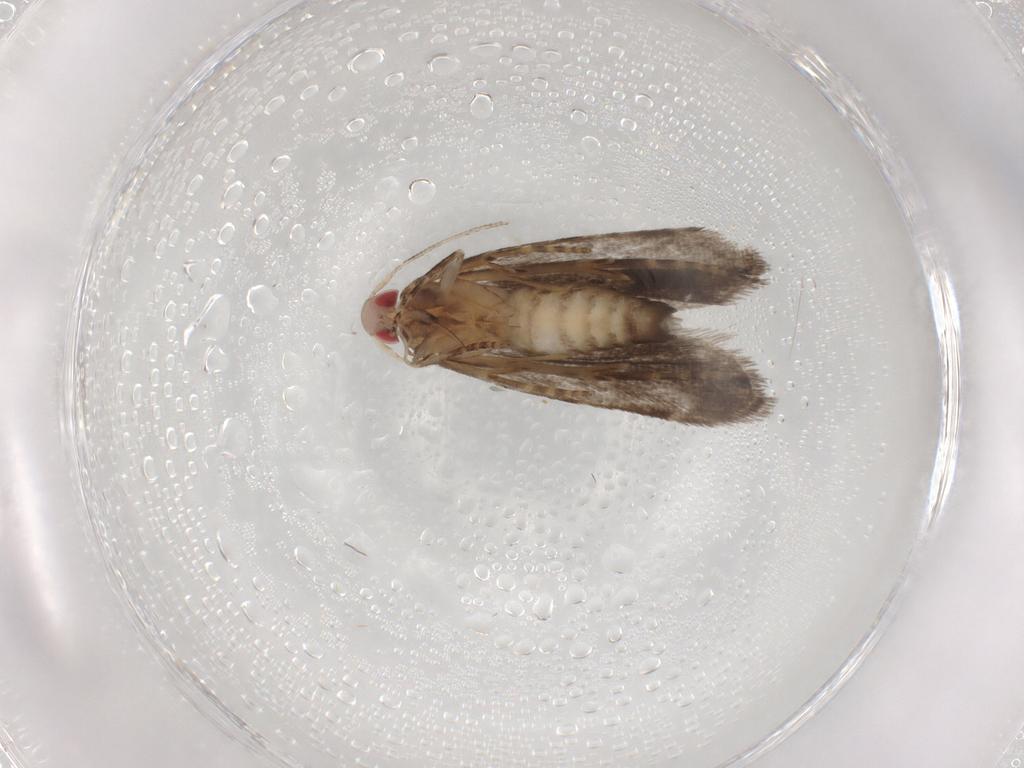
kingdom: Animalia
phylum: Arthropoda
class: Insecta
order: Lepidoptera
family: Gelechiidae
